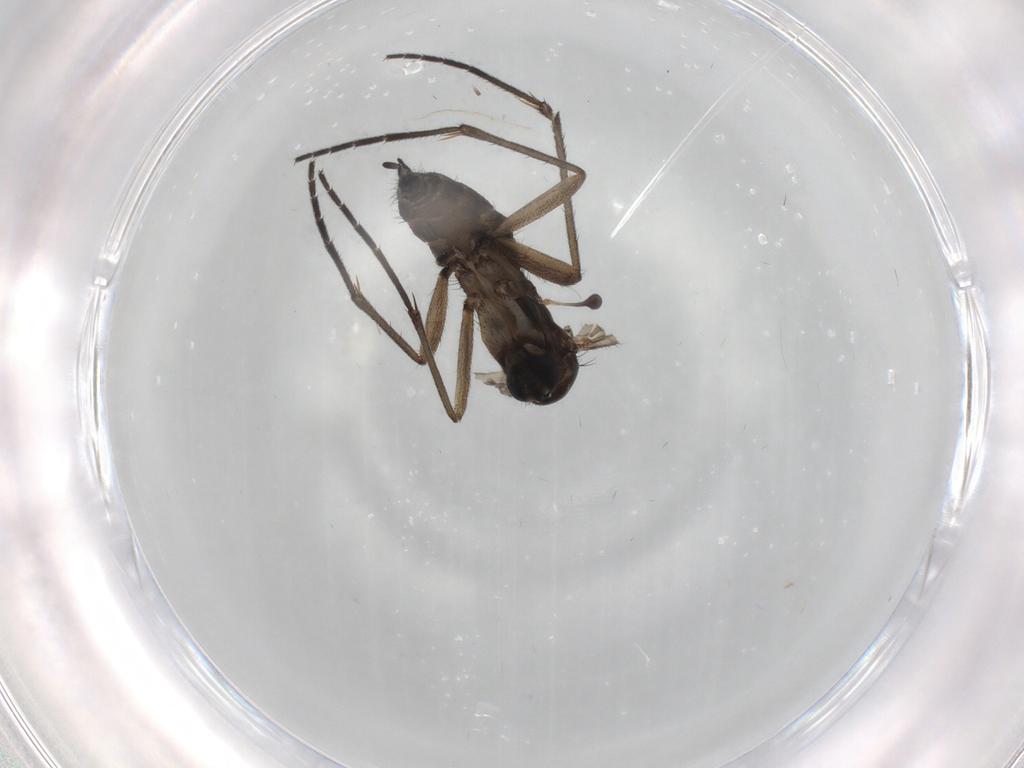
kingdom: Animalia
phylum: Arthropoda
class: Insecta
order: Diptera
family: Sciaridae
